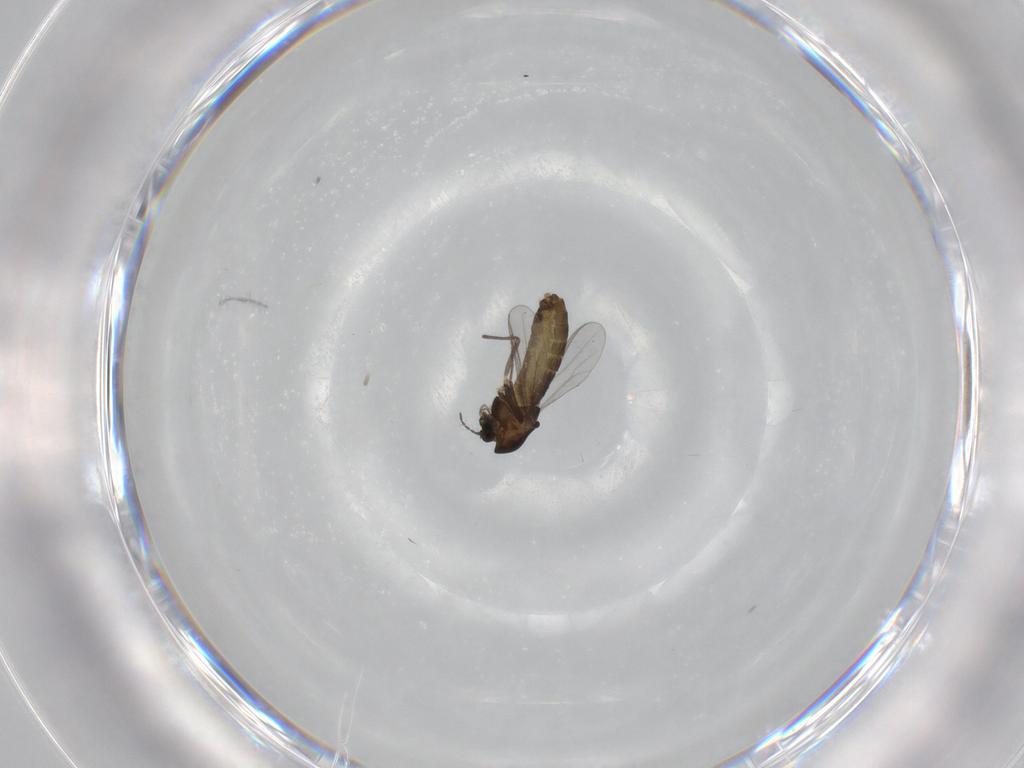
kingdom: Animalia
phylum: Arthropoda
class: Insecta
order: Diptera
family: Chironomidae
